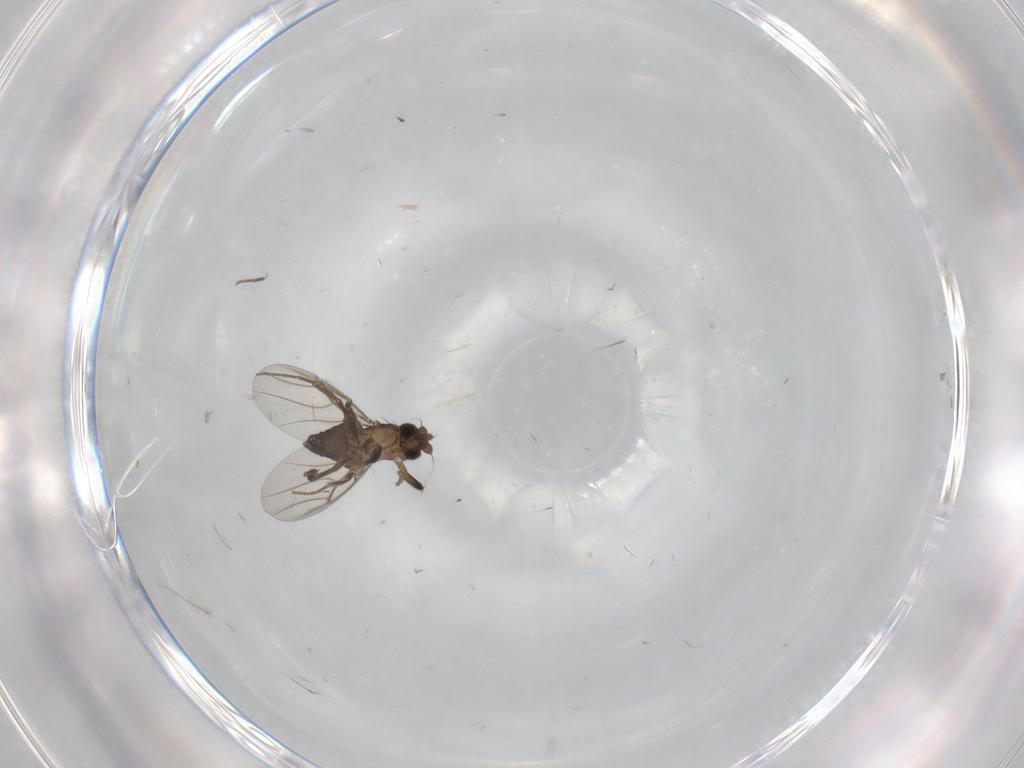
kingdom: Animalia
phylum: Arthropoda
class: Insecta
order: Diptera
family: Phoridae
